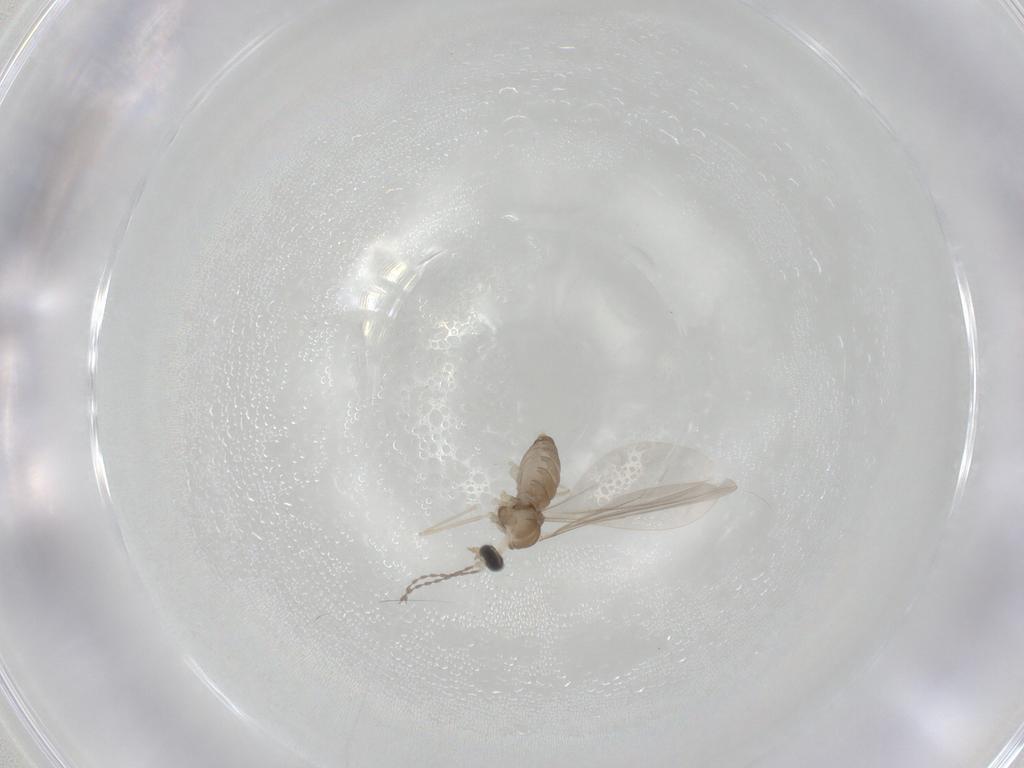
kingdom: Animalia
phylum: Arthropoda
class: Insecta
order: Diptera
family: Cecidomyiidae
